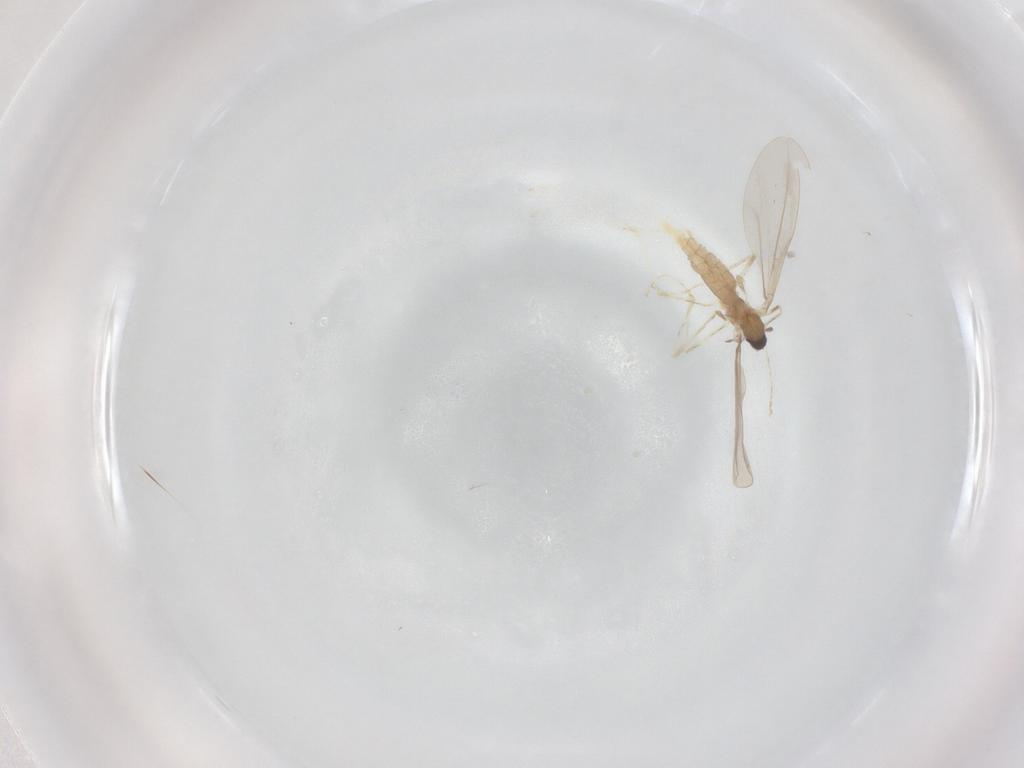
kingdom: Animalia
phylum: Arthropoda
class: Insecta
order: Diptera
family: Cecidomyiidae
